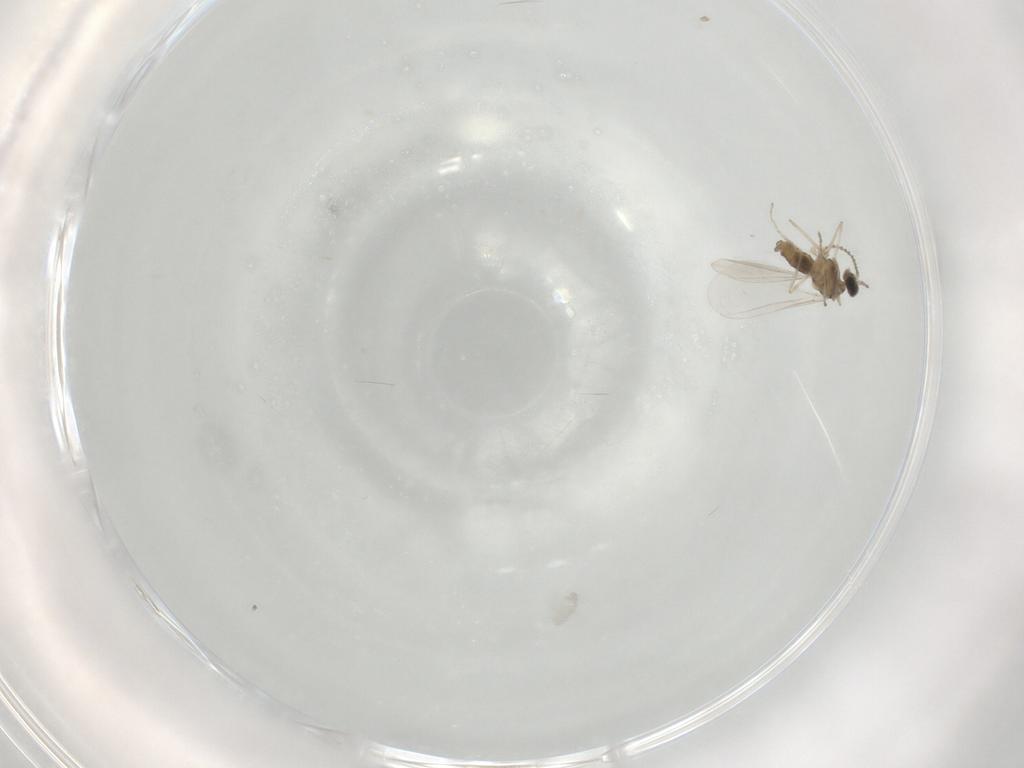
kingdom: Animalia
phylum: Arthropoda
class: Insecta
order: Diptera
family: Cecidomyiidae
